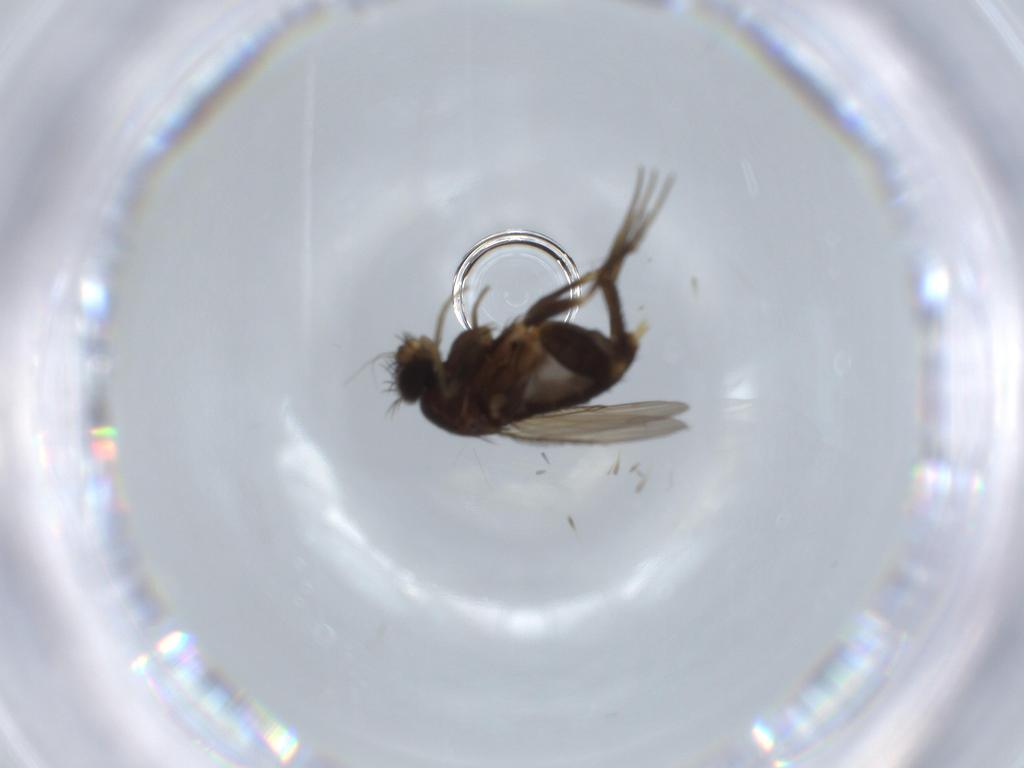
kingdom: Animalia
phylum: Arthropoda
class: Insecta
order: Diptera
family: Phoridae
